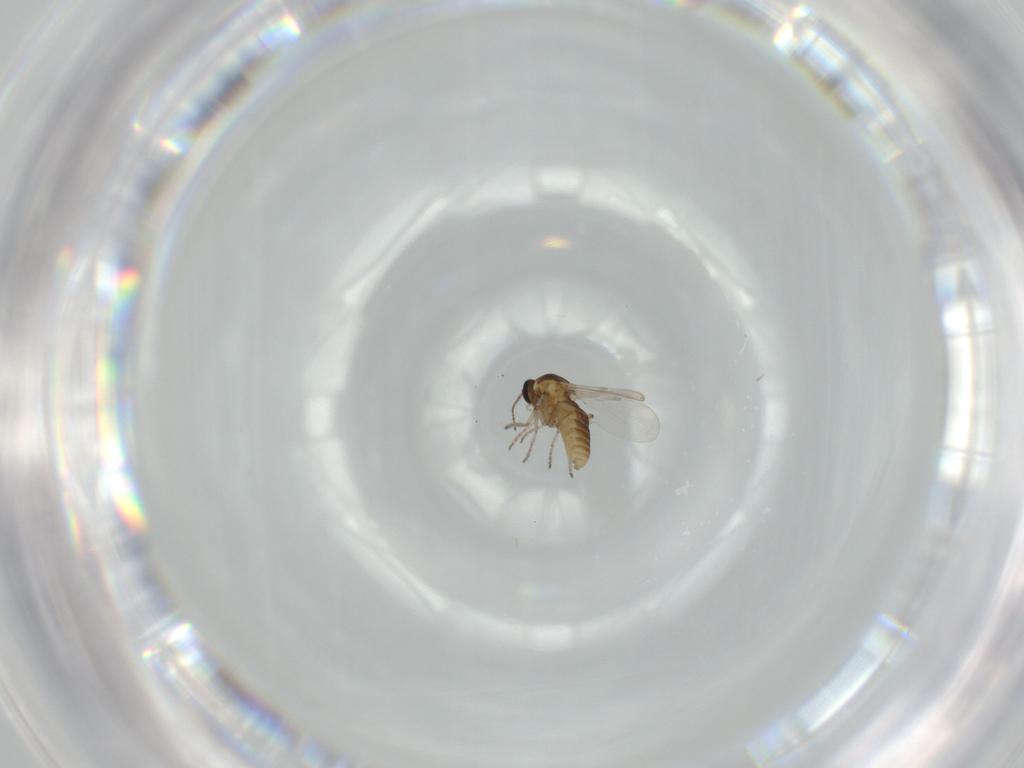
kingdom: Animalia
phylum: Arthropoda
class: Insecta
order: Diptera
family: Ceratopogonidae
